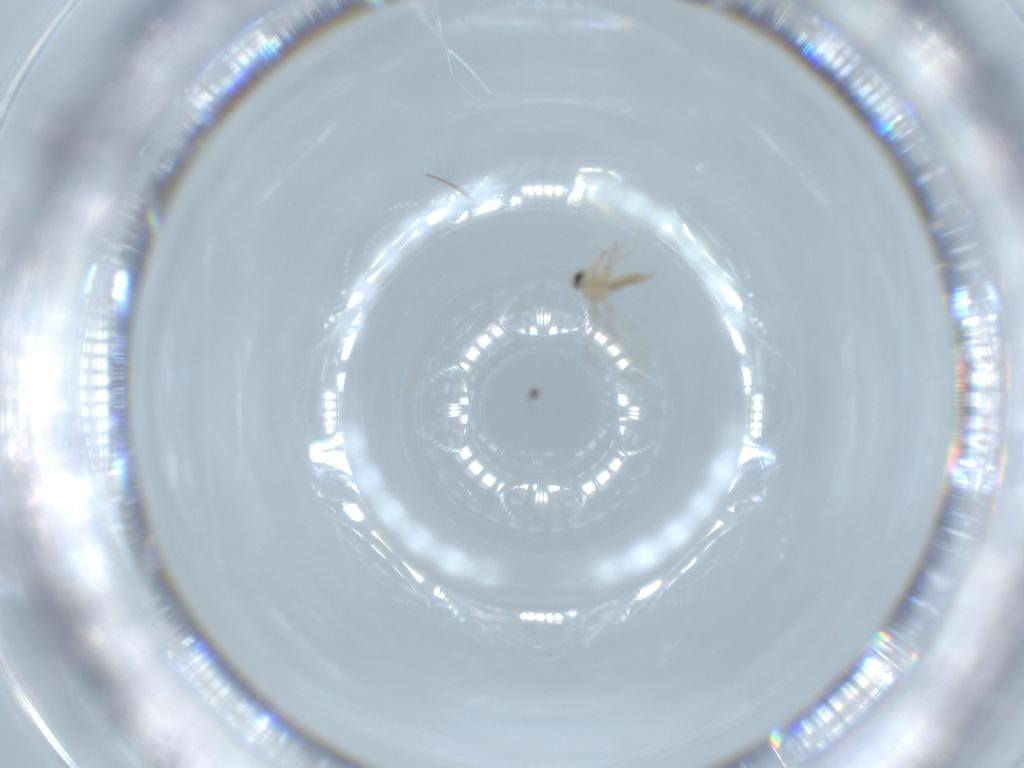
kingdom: Animalia
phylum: Arthropoda
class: Insecta
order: Diptera
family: Cecidomyiidae
